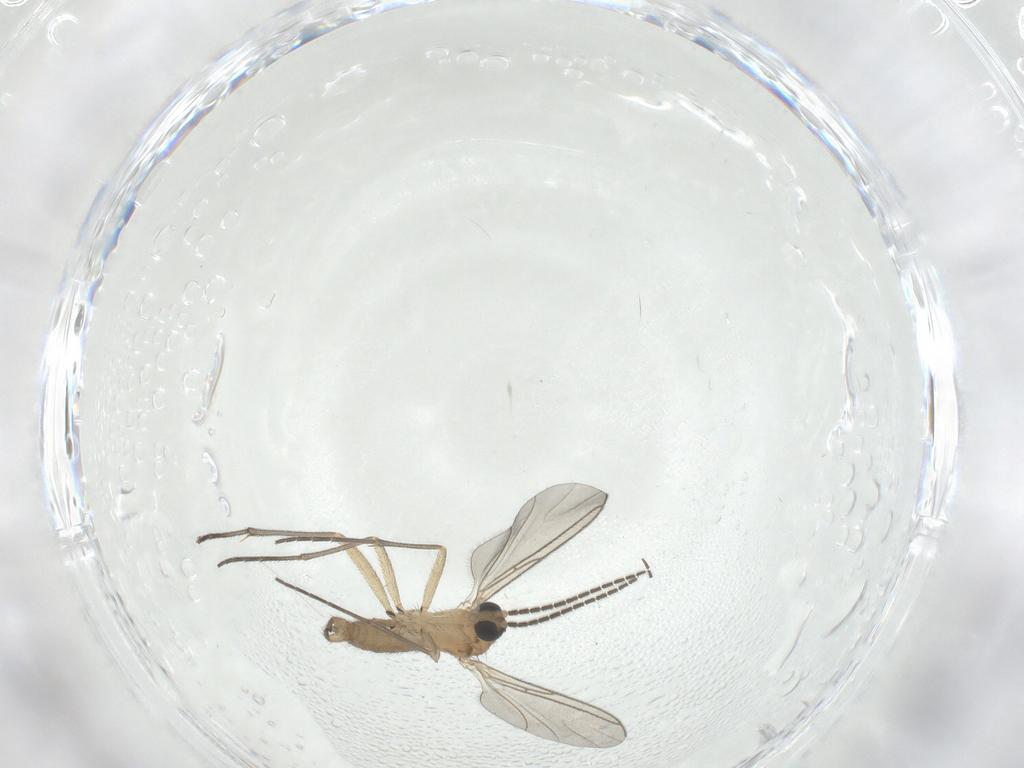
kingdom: Animalia
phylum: Arthropoda
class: Insecta
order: Diptera
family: Sciaridae
